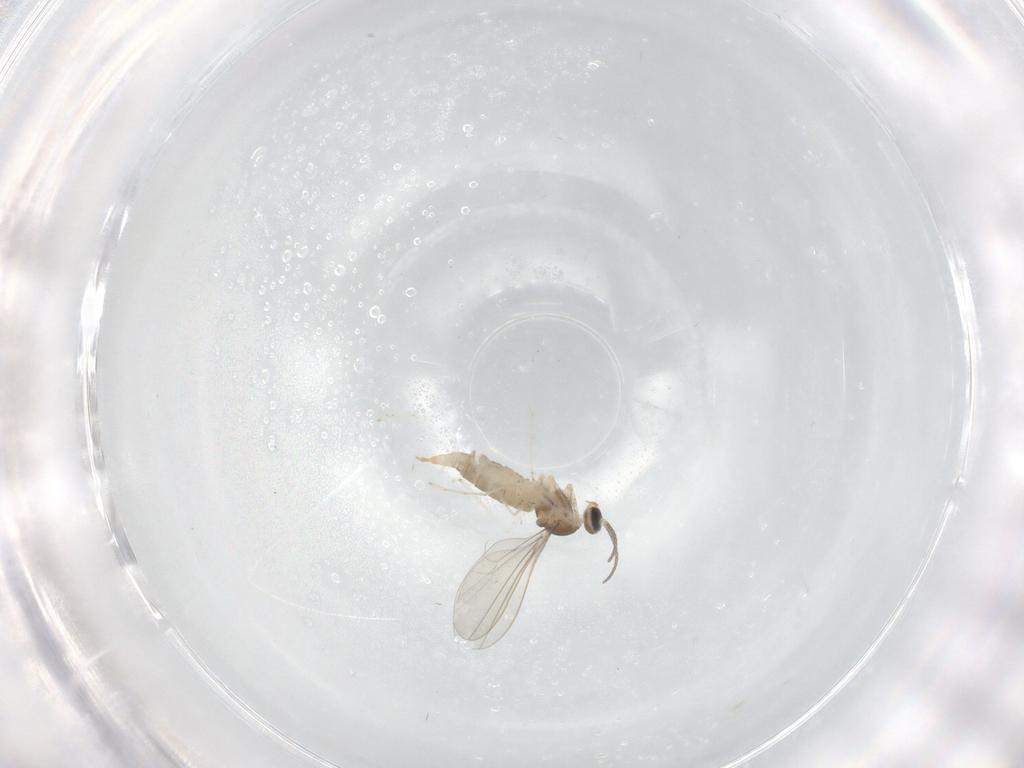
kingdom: Animalia
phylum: Arthropoda
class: Insecta
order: Diptera
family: Cecidomyiidae
